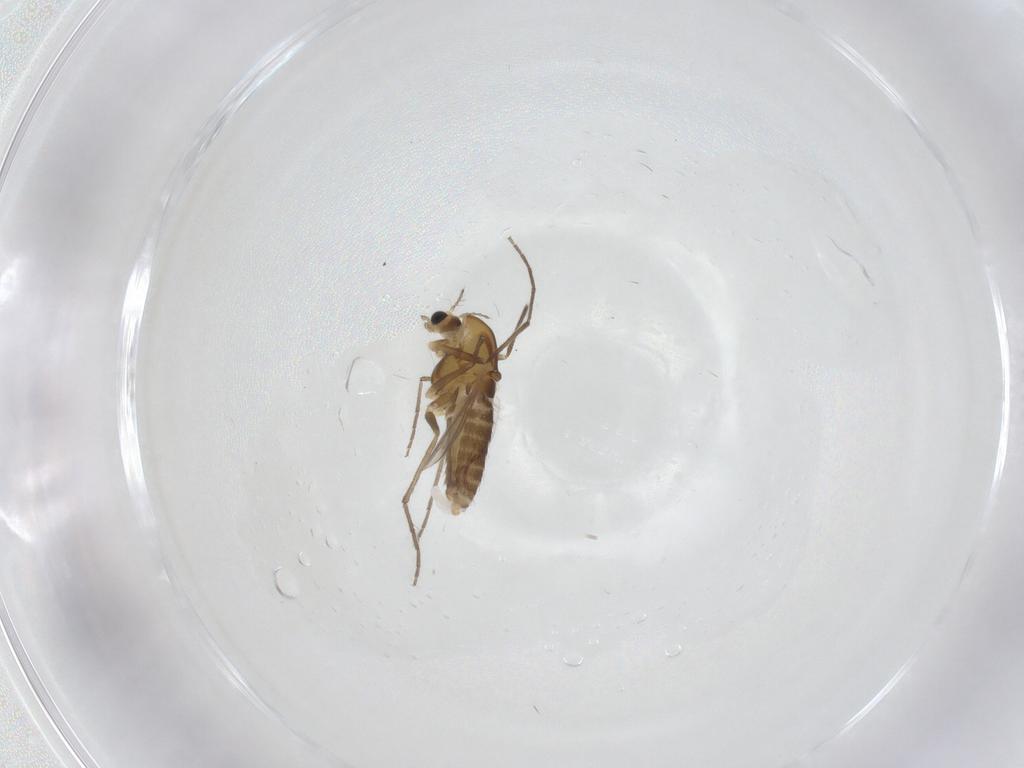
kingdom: Animalia
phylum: Arthropoda
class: Insecta
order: Diptera
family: Chironomidae
